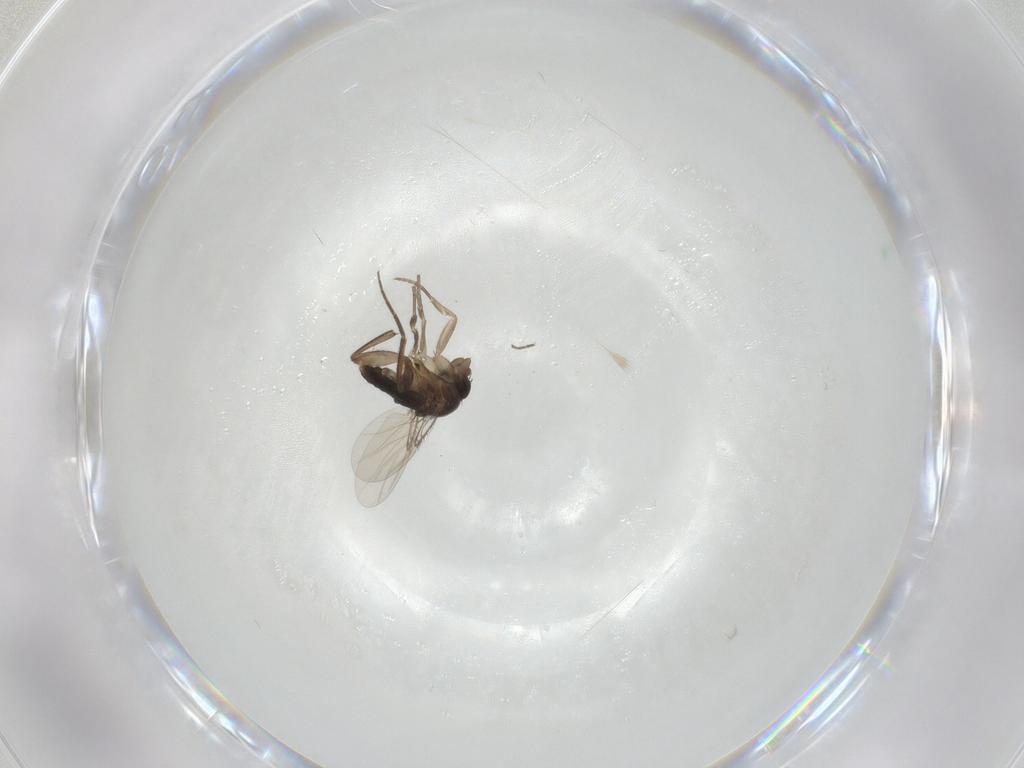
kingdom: Animalia
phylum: Arthropoda
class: Insecta
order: Diptera
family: Phoridae
